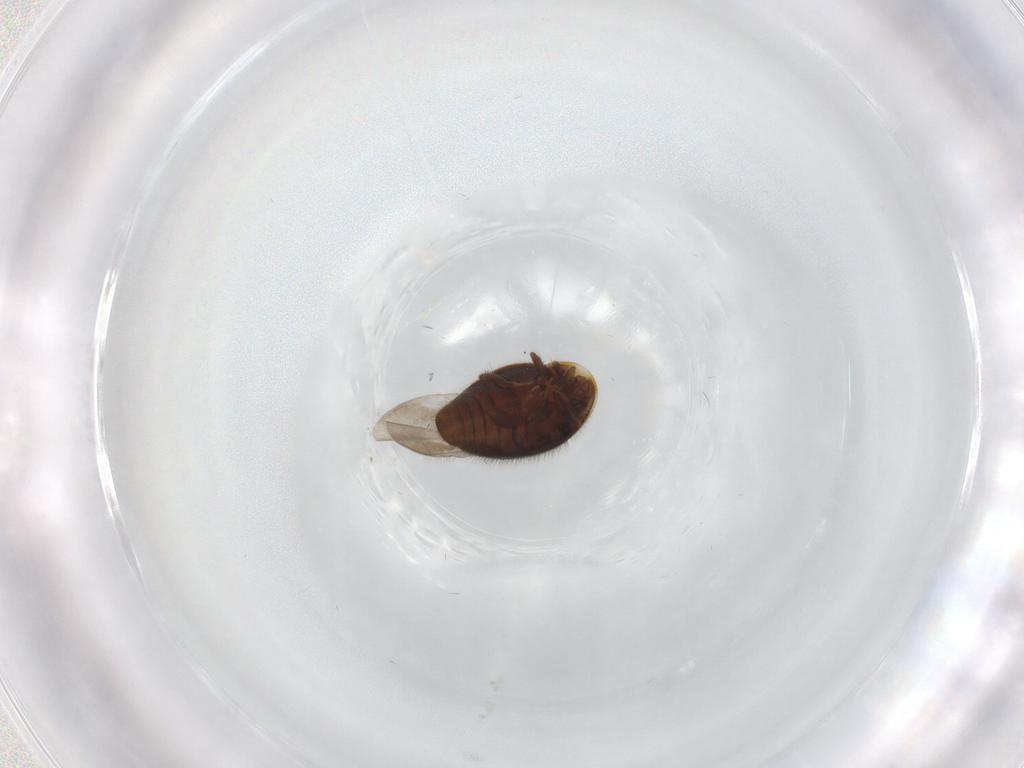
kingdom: Animalia
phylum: Arthropoda
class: Insecta
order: Coleoptera
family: Corylophidae
